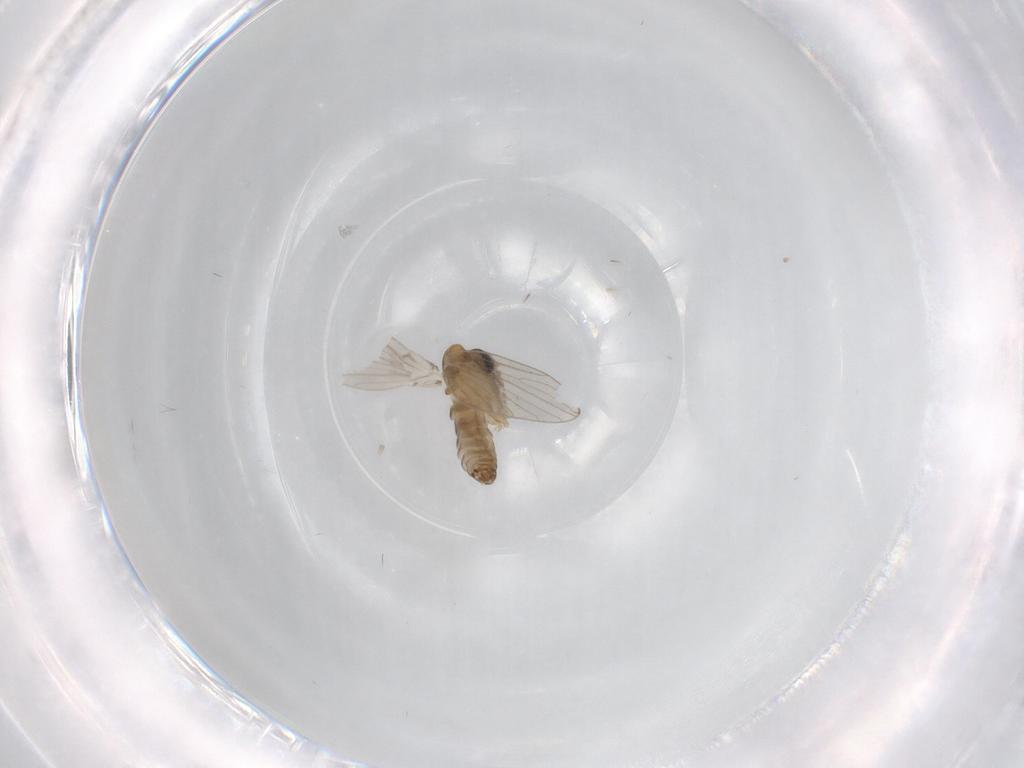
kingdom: Animalia
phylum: Arthropoda
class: Insecta
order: Diptera
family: Psychodidae
